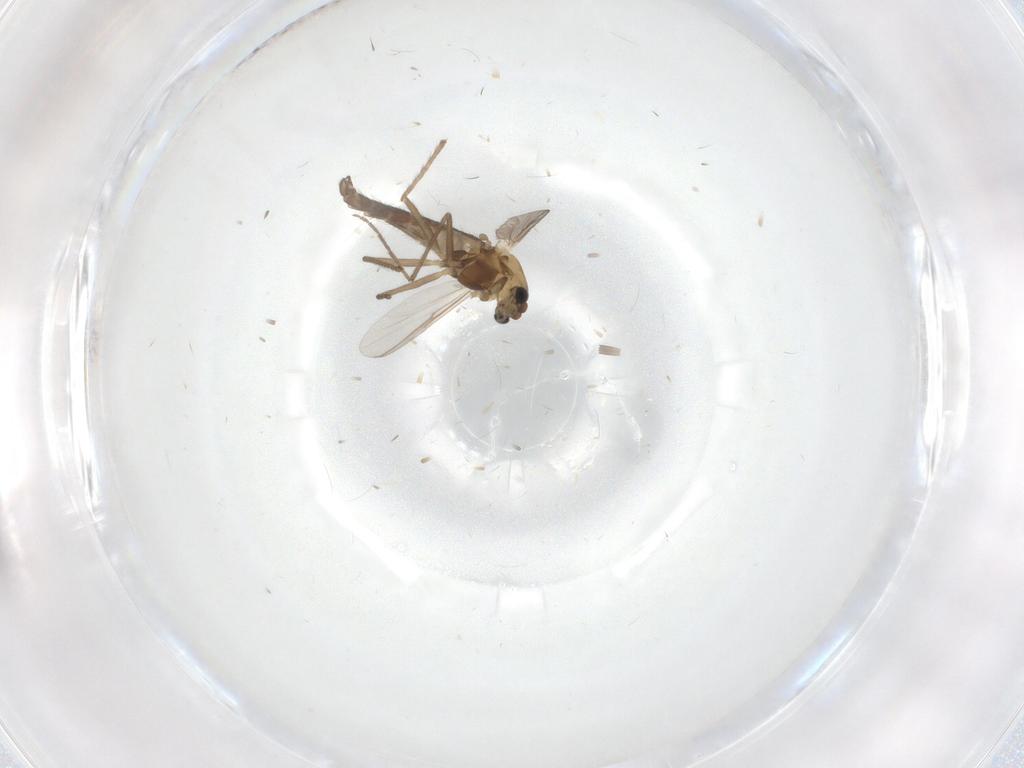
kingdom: Animalia
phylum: Arthropoda
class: Insecta
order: Diptera
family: Chironomidae
